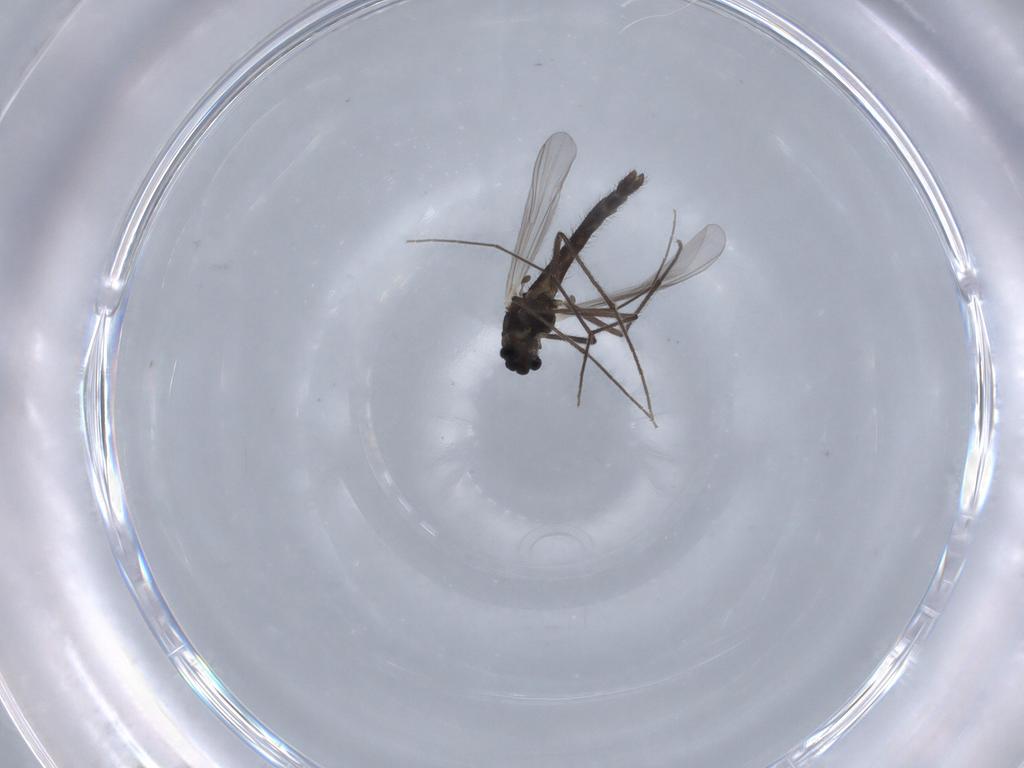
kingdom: Animalia
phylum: Arthropoda
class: Insecta
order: Diptera
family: Chironomidae
